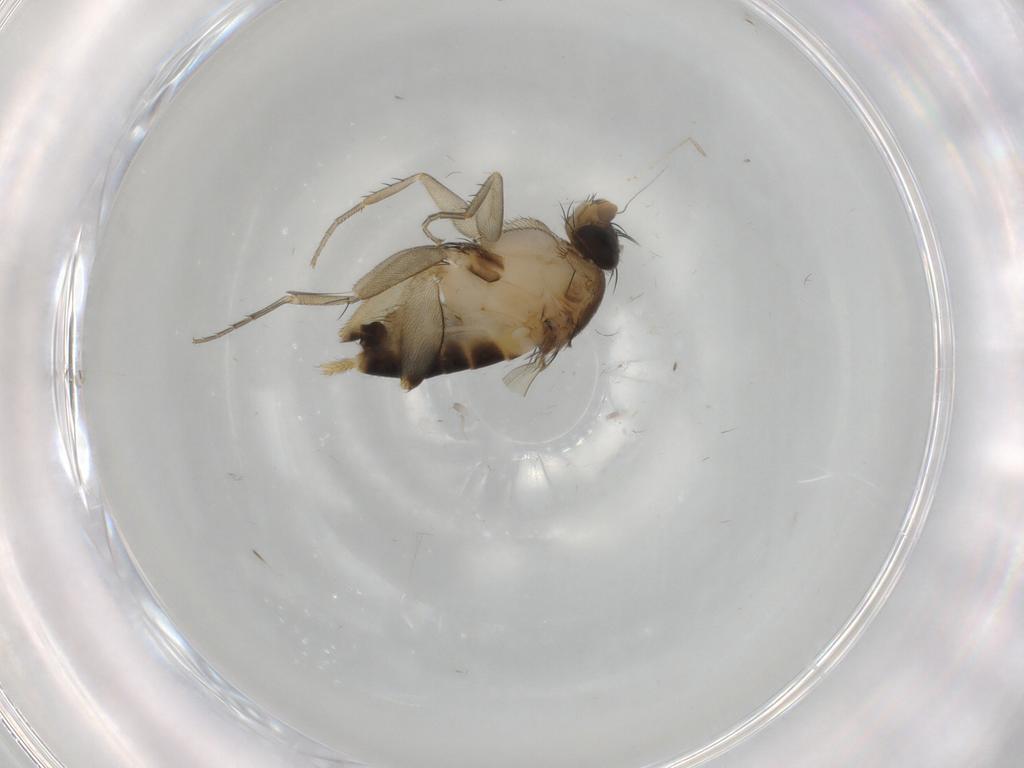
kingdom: Animalia
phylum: Arthropoda
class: Insecta
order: Diptera
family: Phoridae
